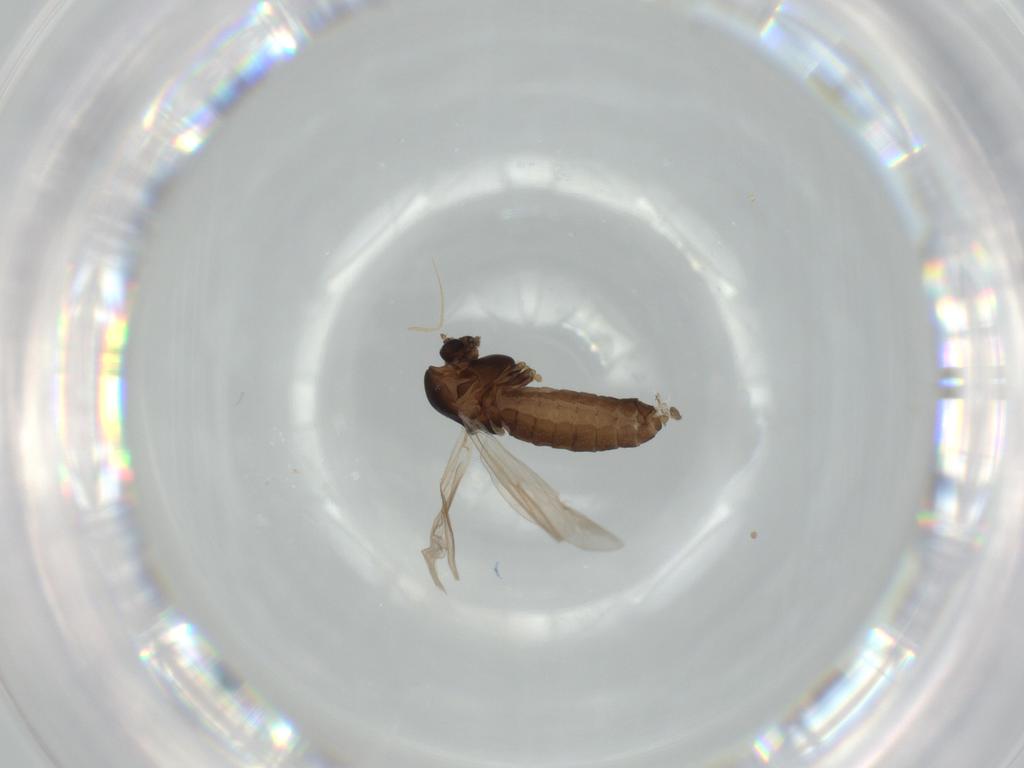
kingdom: Animalia
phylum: Arthropoda
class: Insecta
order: Diptera
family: Chironomidae
